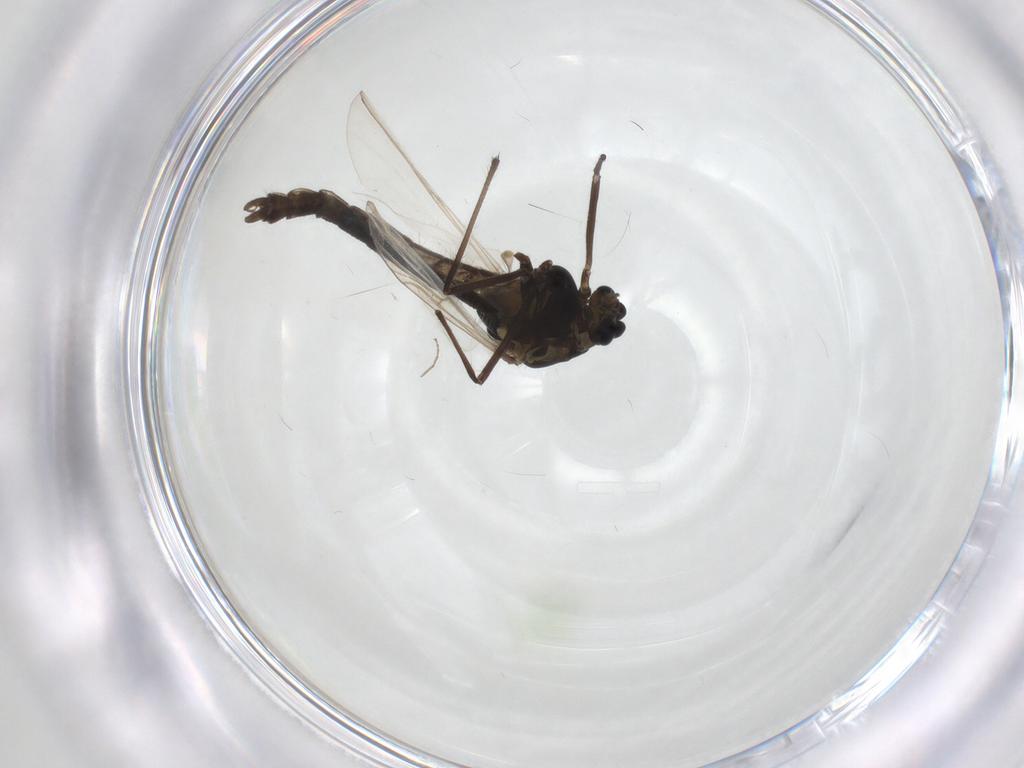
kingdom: Animalia
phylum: Arthropoda
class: Insecta
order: Diptera
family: Chironomidae
